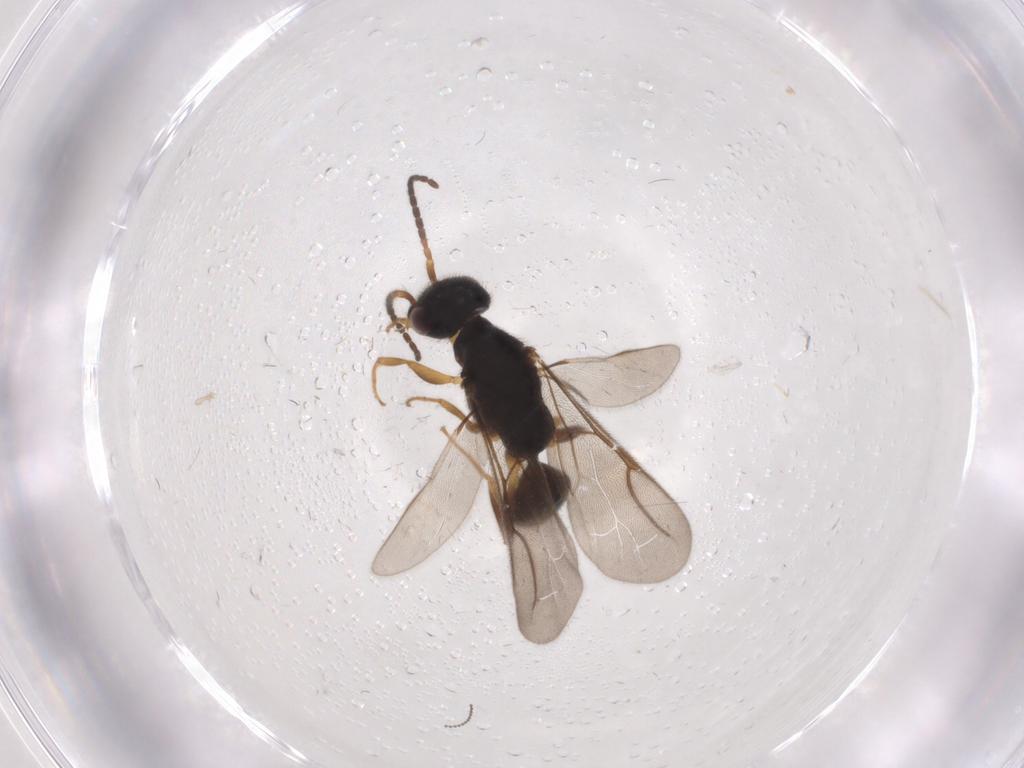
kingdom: Animalia
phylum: Arthropoda
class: Insecta
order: Hymenoptera
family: Bethylidae
